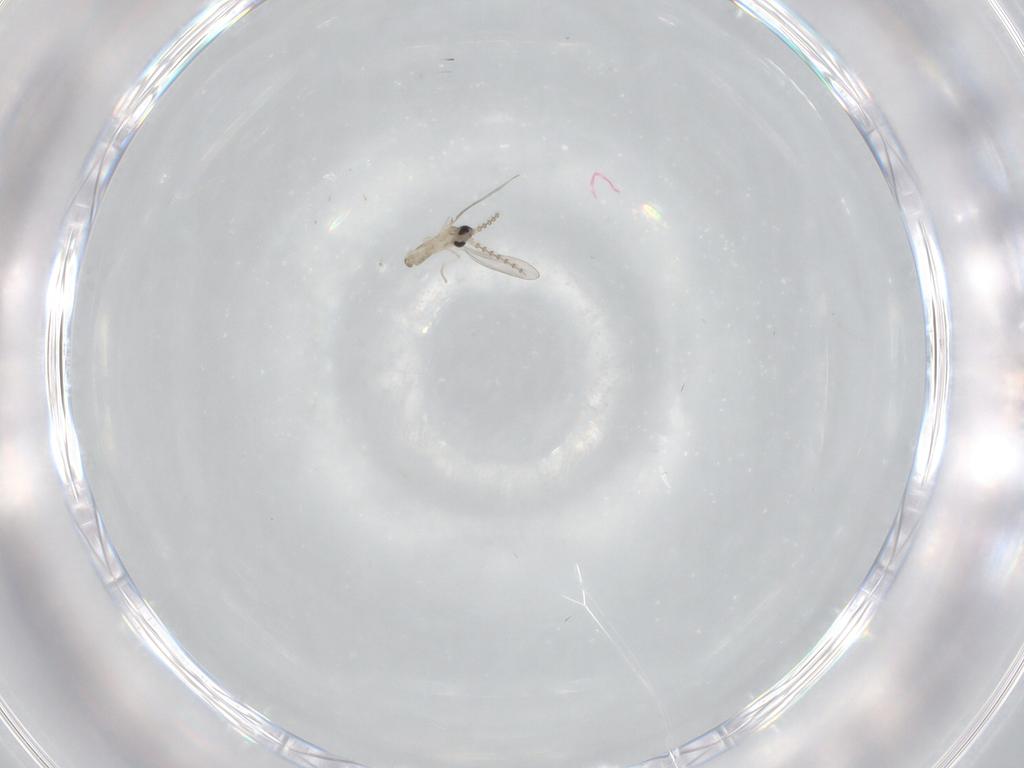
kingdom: Animalia
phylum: Arthropoda
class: Insecta
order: Diptera
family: Cecidomyiidae
